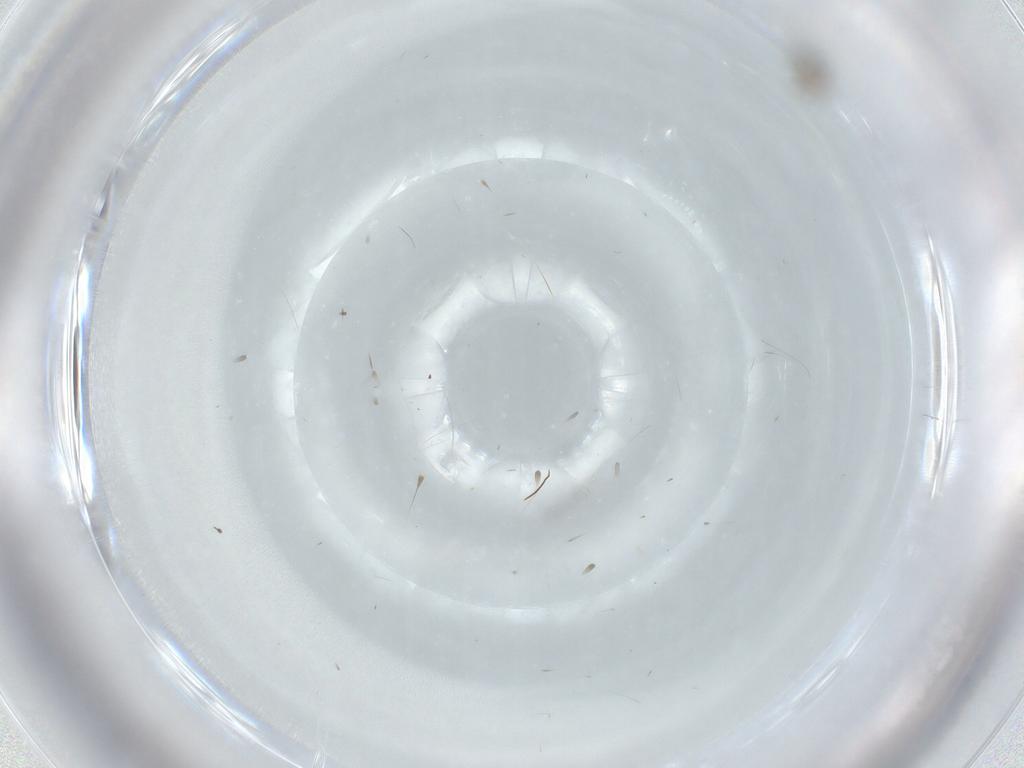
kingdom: Animalia
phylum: Arthropoda
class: Insecta
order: Diptera
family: Cecidomyiidae
